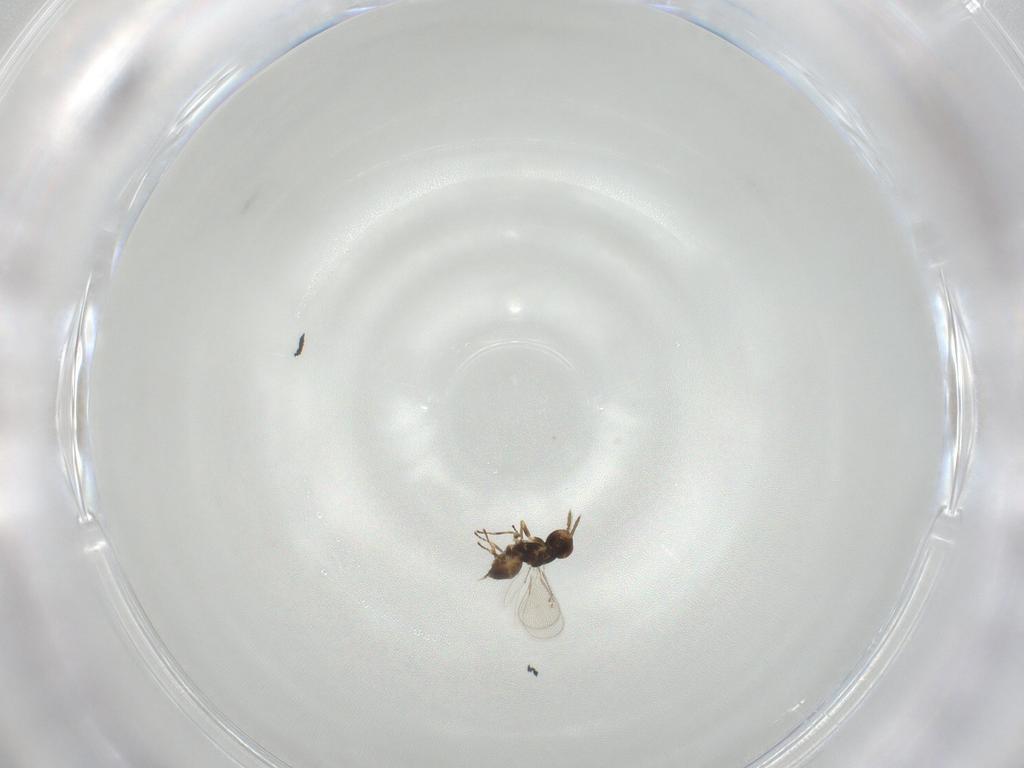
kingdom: Animalia
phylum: Arthropoda
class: Insecta
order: Hymenoptera
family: Eulophidae
